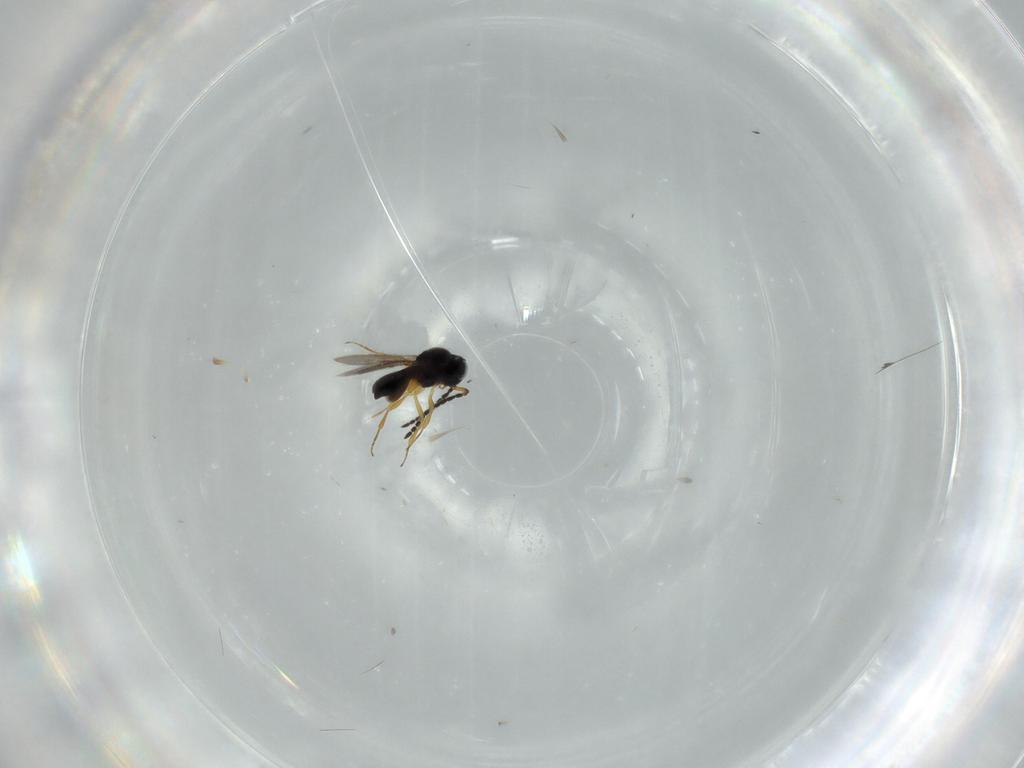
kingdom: Animalia
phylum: Arthropoda
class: Insecta
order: Hymenoptera
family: Scelionidae
